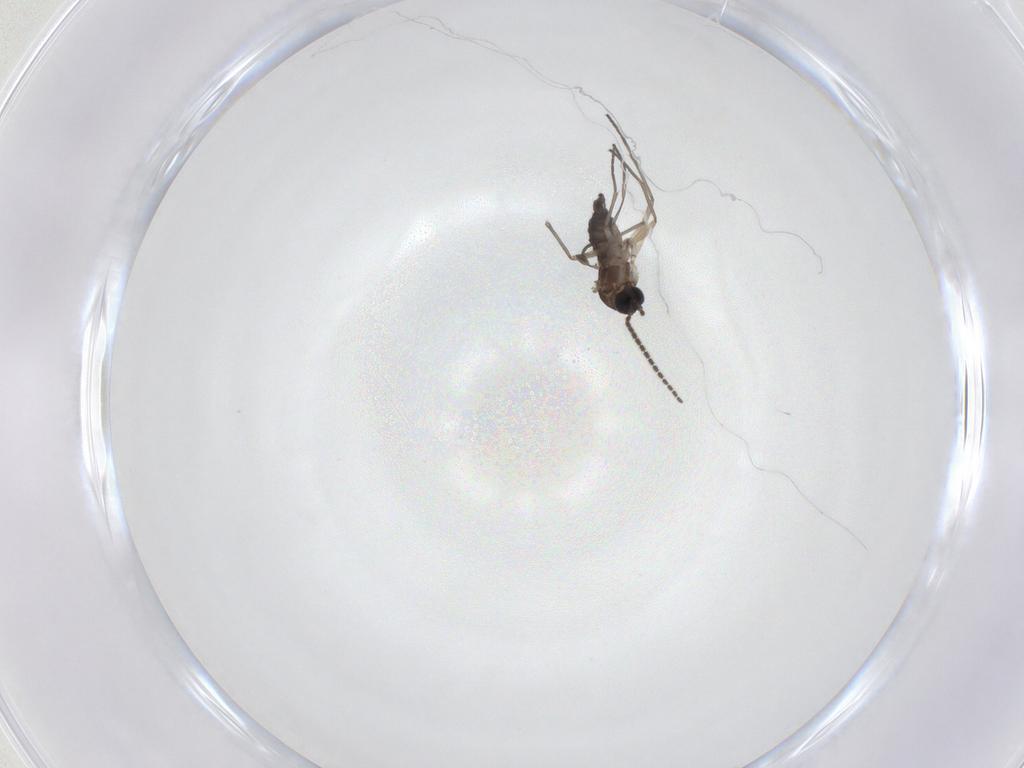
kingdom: Animalia
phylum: Arthropoda
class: Insecta
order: Diptera
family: Sciaridae
